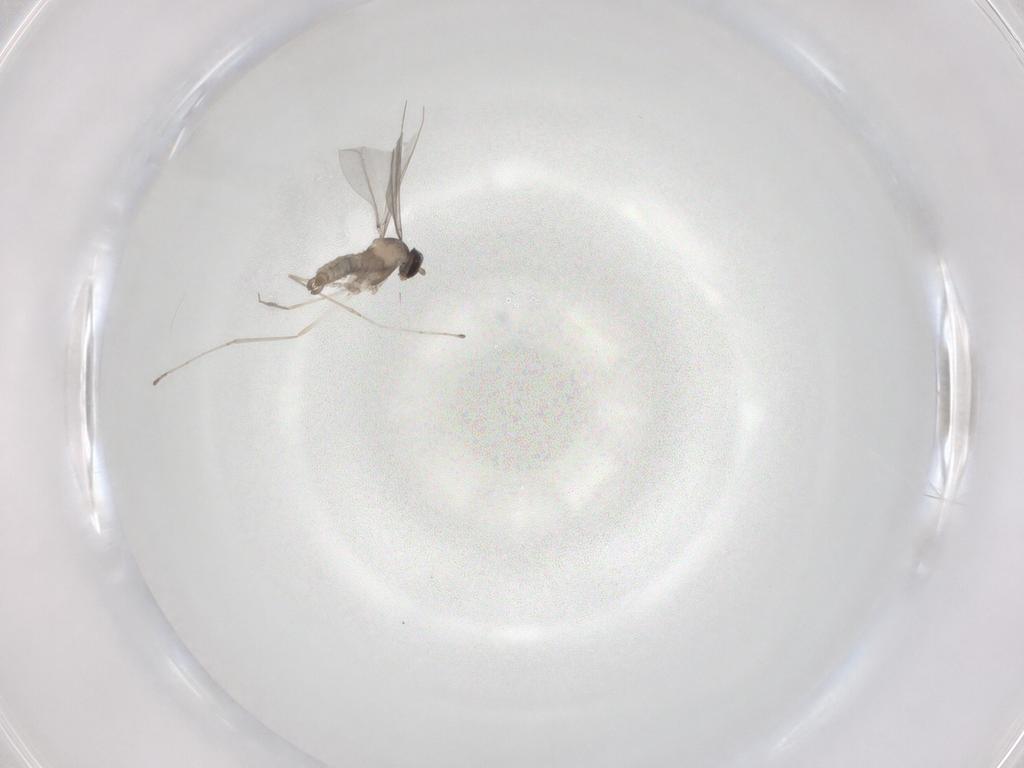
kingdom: Animalia
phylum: Arthropoda
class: Insecta
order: Diptera
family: Cecidomyiidae
